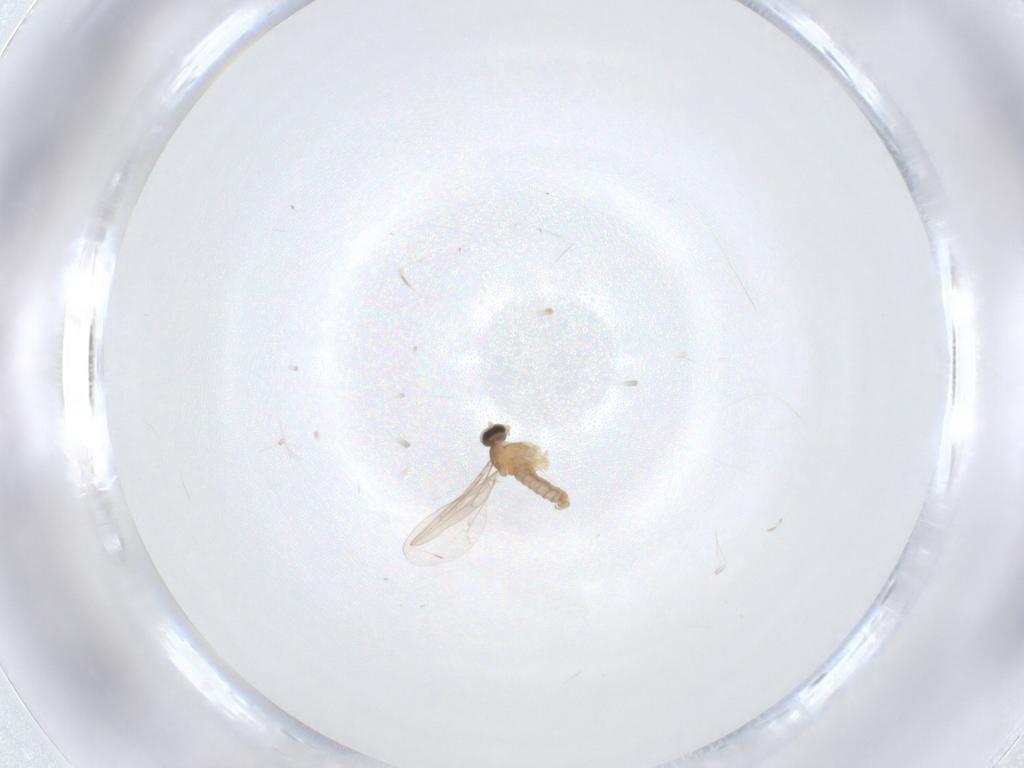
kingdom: Animalia
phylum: Arthropoda
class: Insecta
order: Diptera
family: Cecidomyiidae
